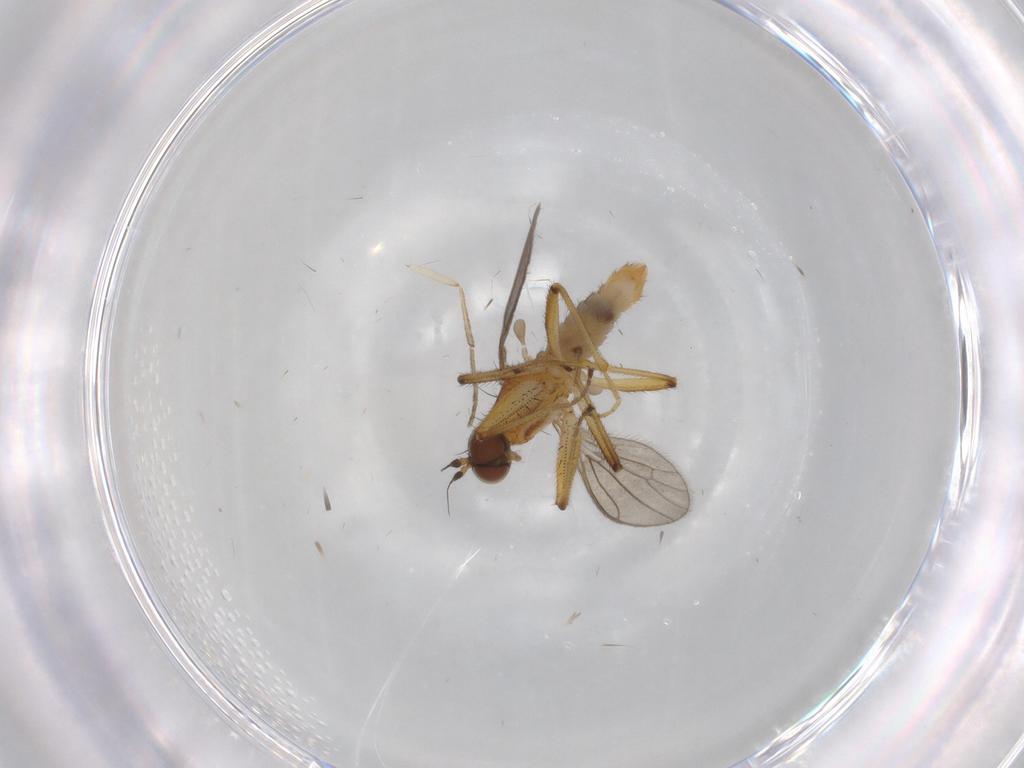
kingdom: Animalia
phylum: Arthropoda
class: Insecta
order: Diptera
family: Empididae
